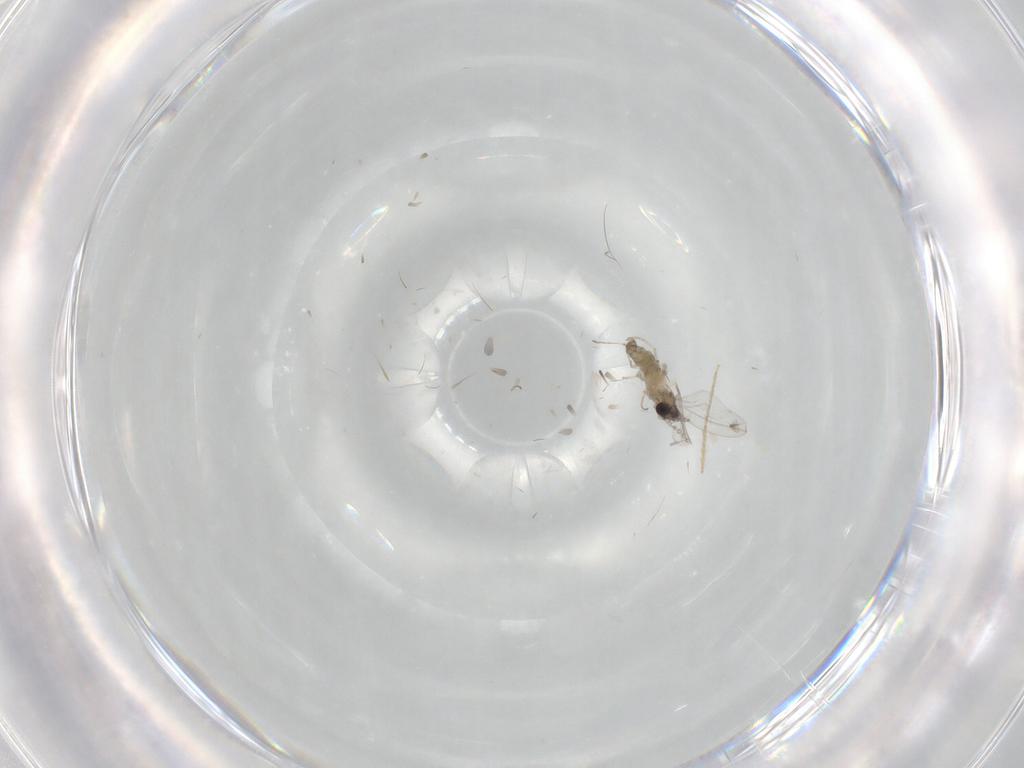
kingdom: Animalia
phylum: Arthropoda
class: Insecta
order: Diptera
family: Cecidomyiidae
